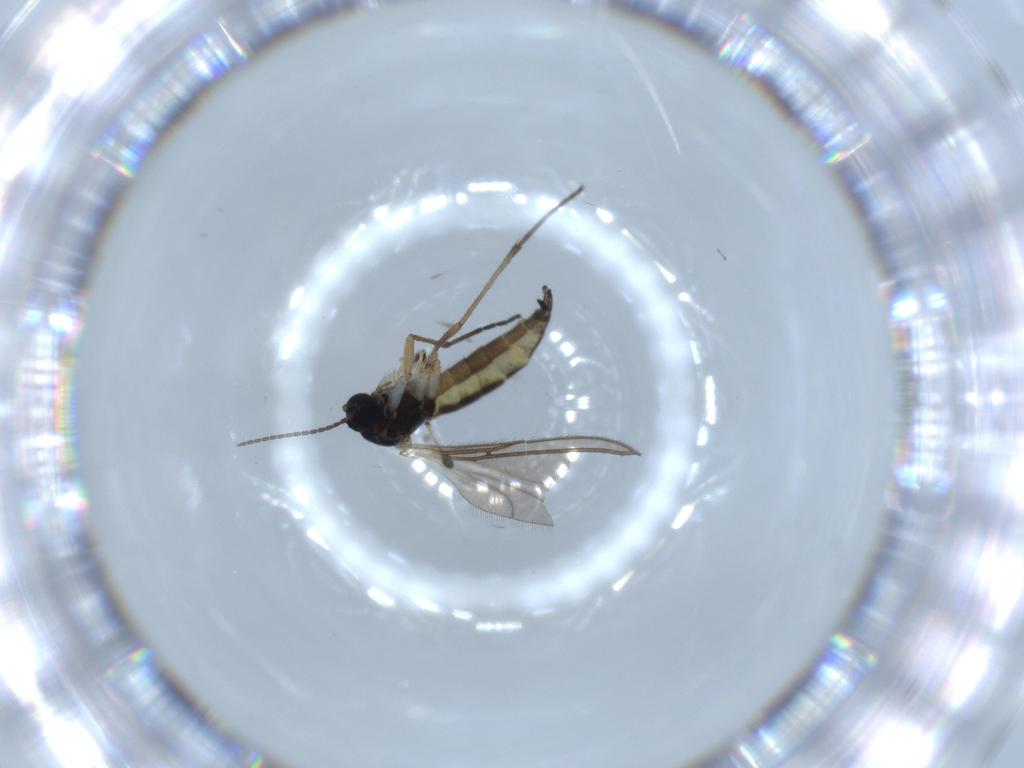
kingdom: Animalia
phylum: Arthropoda
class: Insecta
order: Diptera
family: Sciaridae
